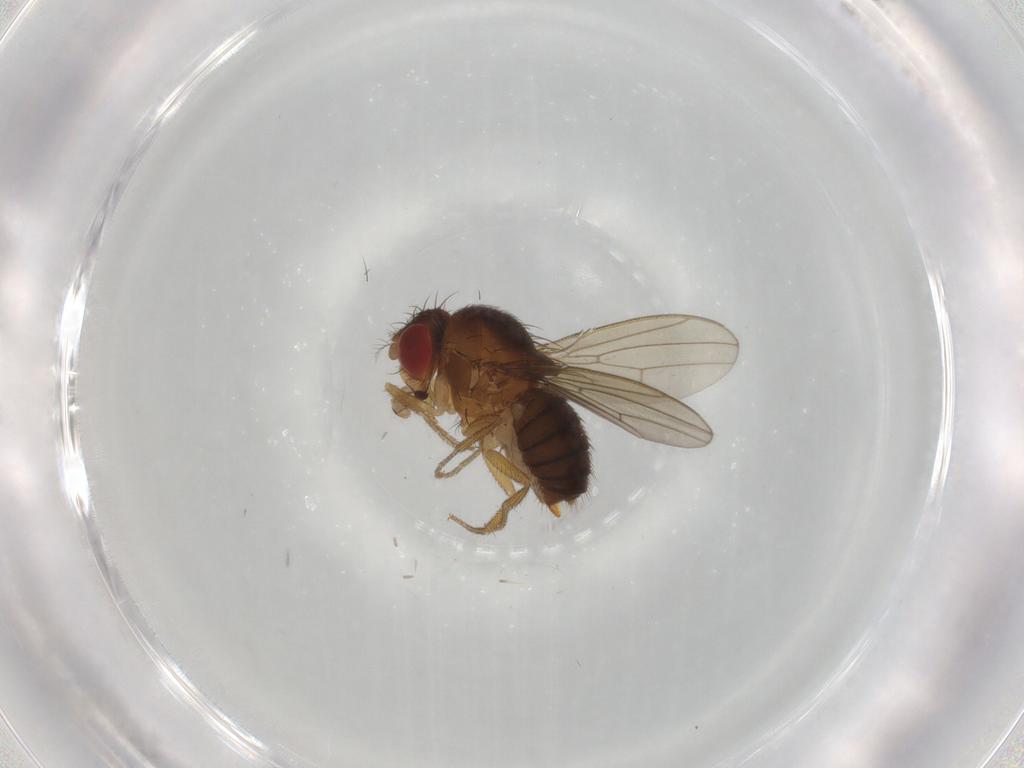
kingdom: Animalia
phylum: Arthropoda
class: Insecta
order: Diptera
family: Drosophilidae
